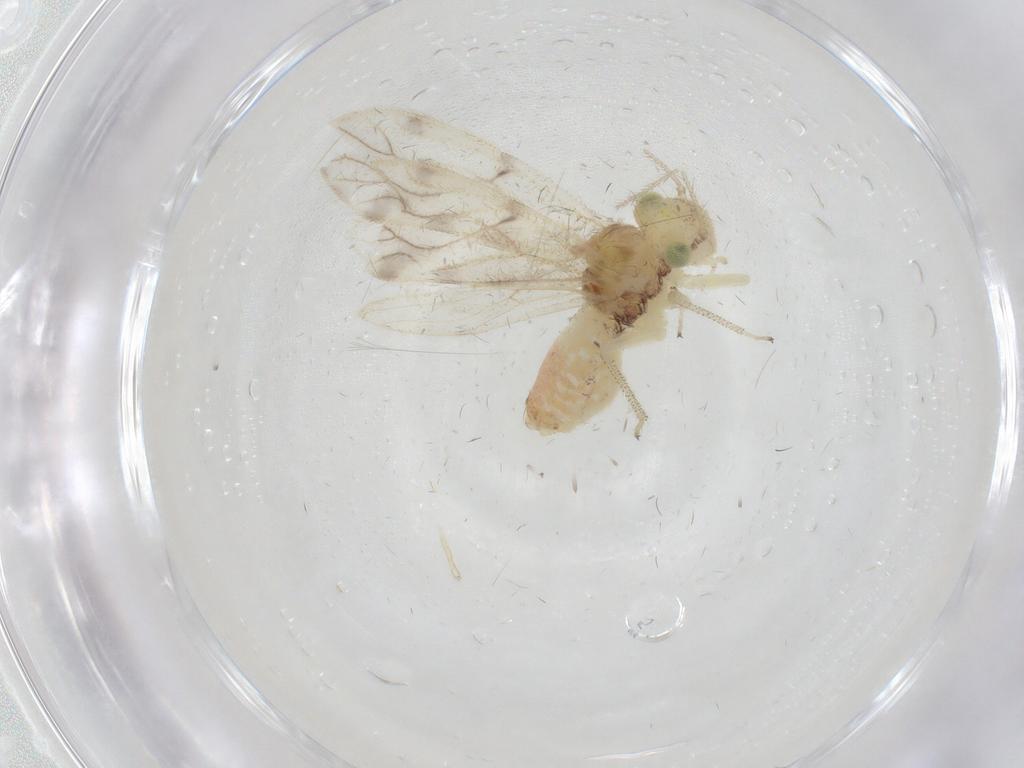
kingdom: Animalia
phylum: Arthropoda
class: Insecta
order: Psocodea
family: Pseudocaeciliidae
